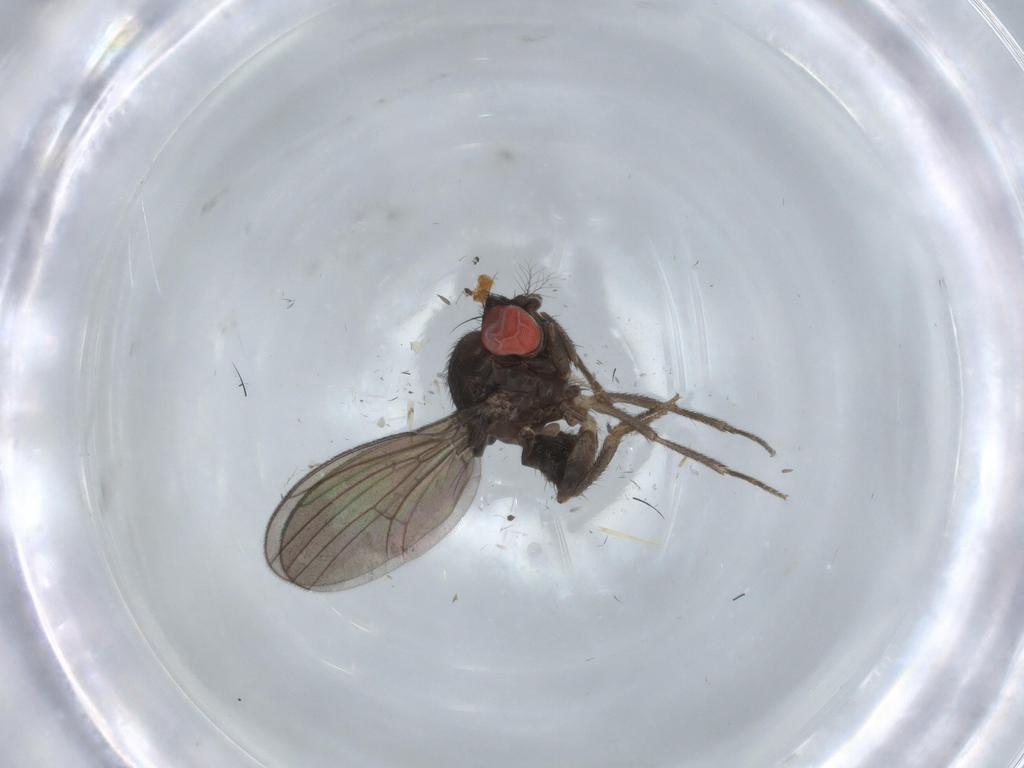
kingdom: Animalia
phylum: Arthropoda
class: Insecta
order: Diptera
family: Drosophilidae
